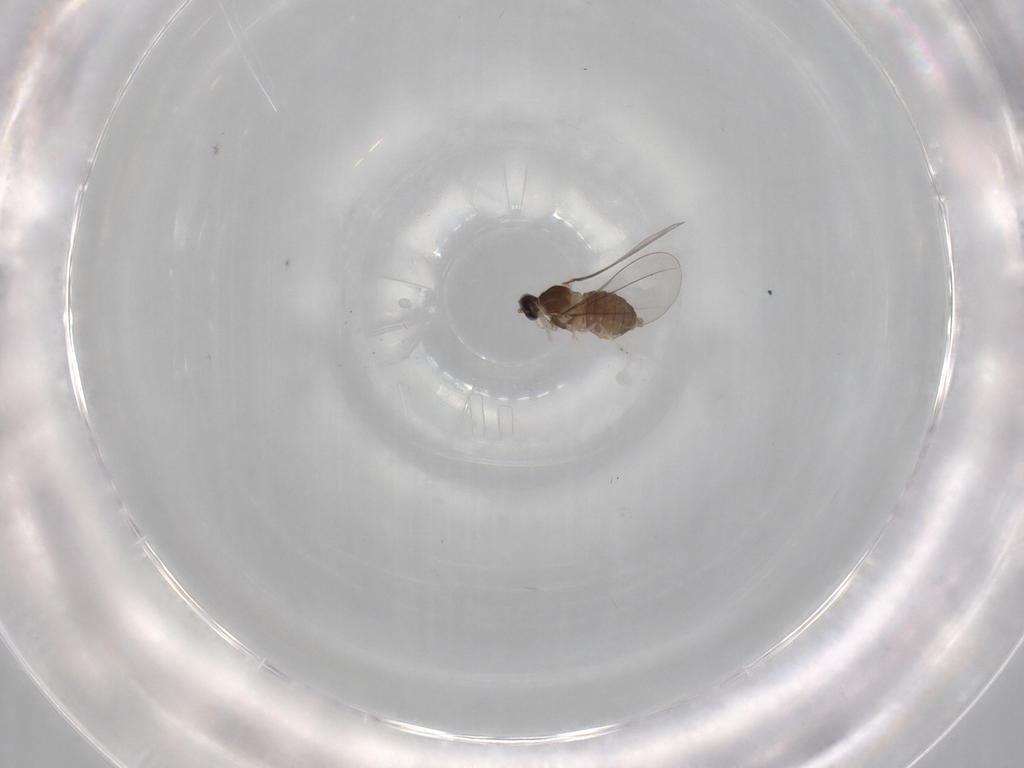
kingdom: Animalia
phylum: Arthropoda
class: Insecta
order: Diptera
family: Cecidomyiidae
